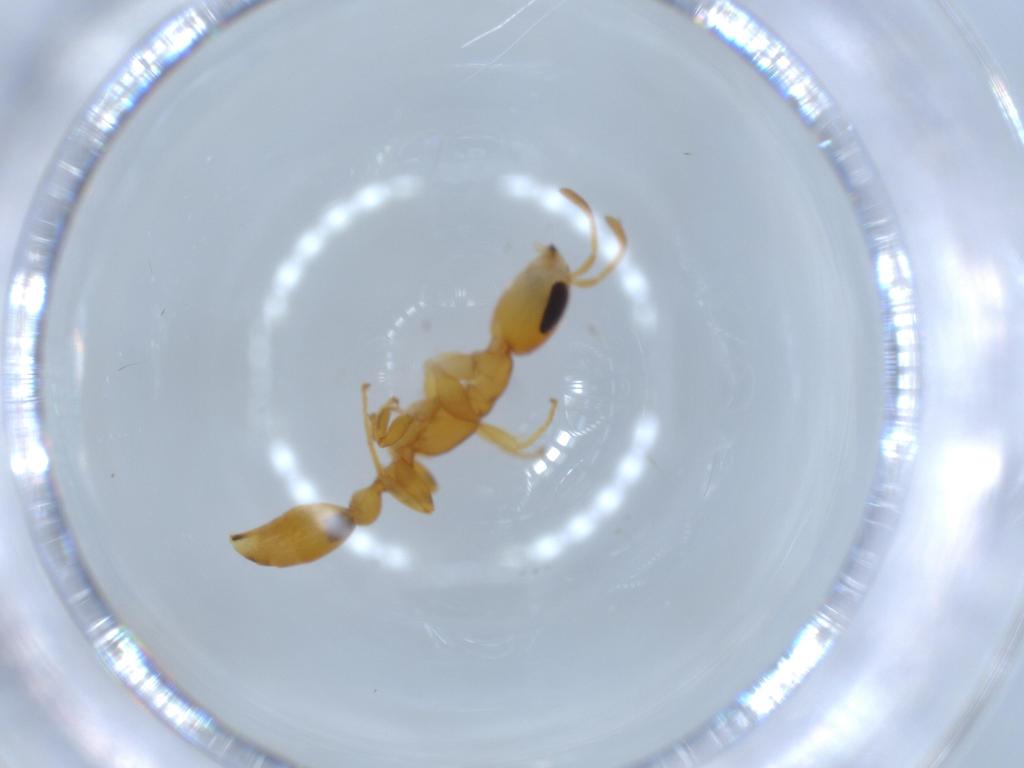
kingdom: Animalia
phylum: Arthropoda
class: Insecta
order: Hymenoptera
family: Formicidae
